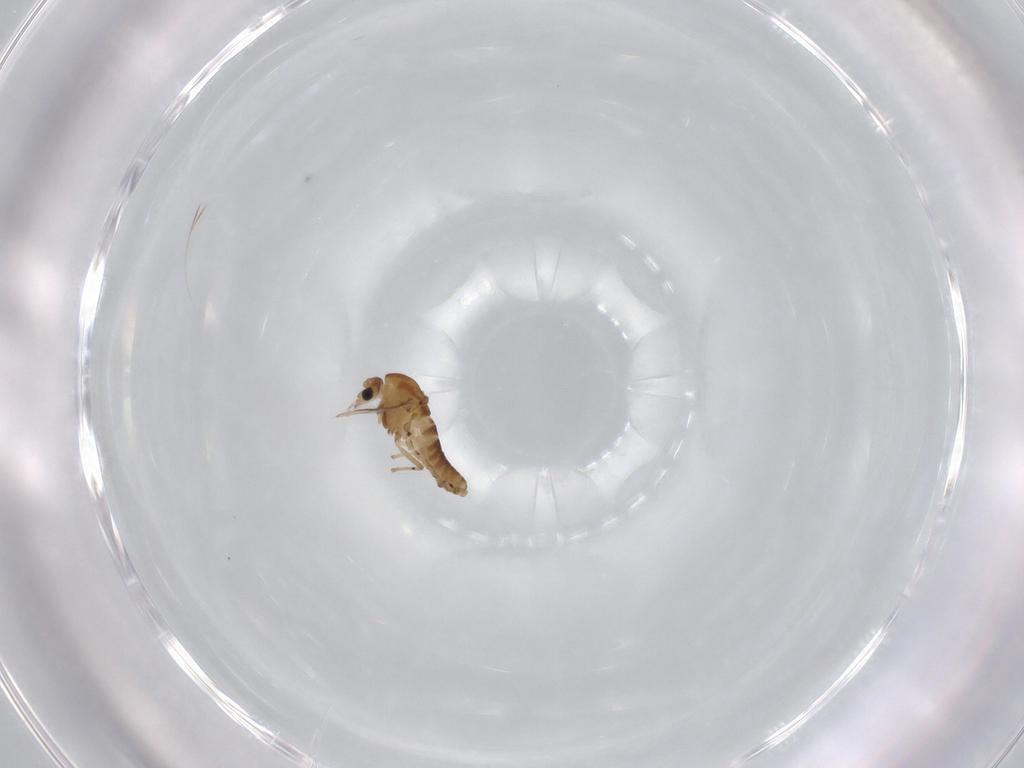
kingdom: Animalia
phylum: Arthropoda
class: Insecta
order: Diptera
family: Chironomidae
